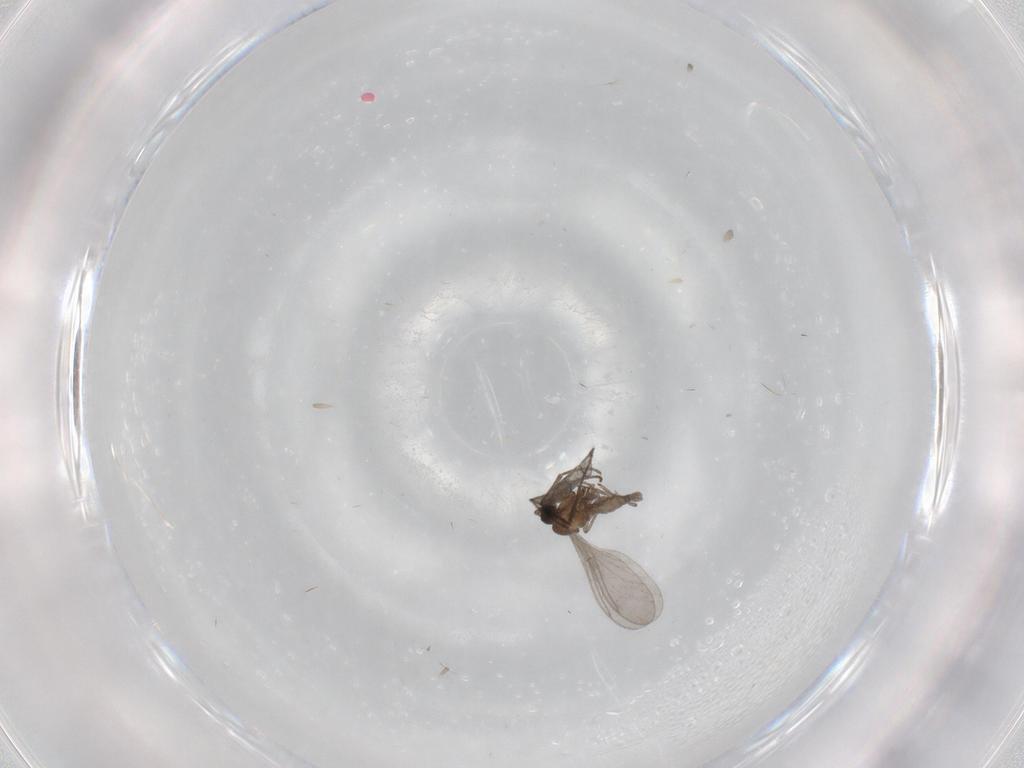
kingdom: Animalia
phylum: Arthropoda
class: Insecta
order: Diptera
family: Sciaridae
